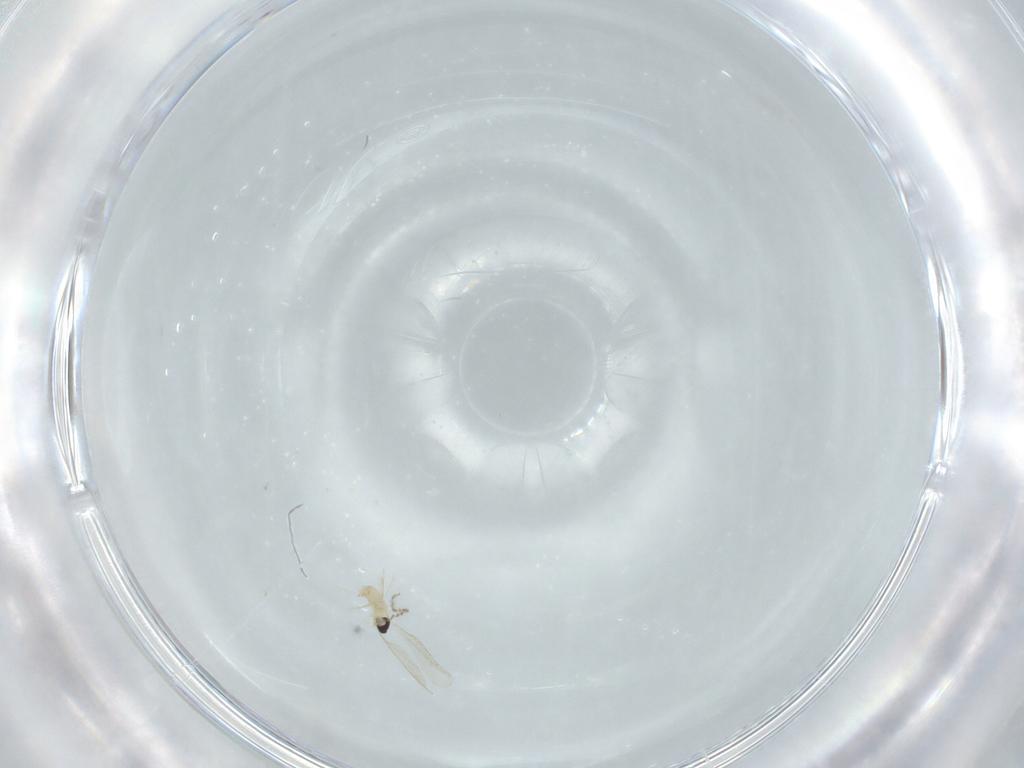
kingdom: Animalia
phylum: Arthropoda
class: Insecta
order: Diptera
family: Cecidomyiidae
